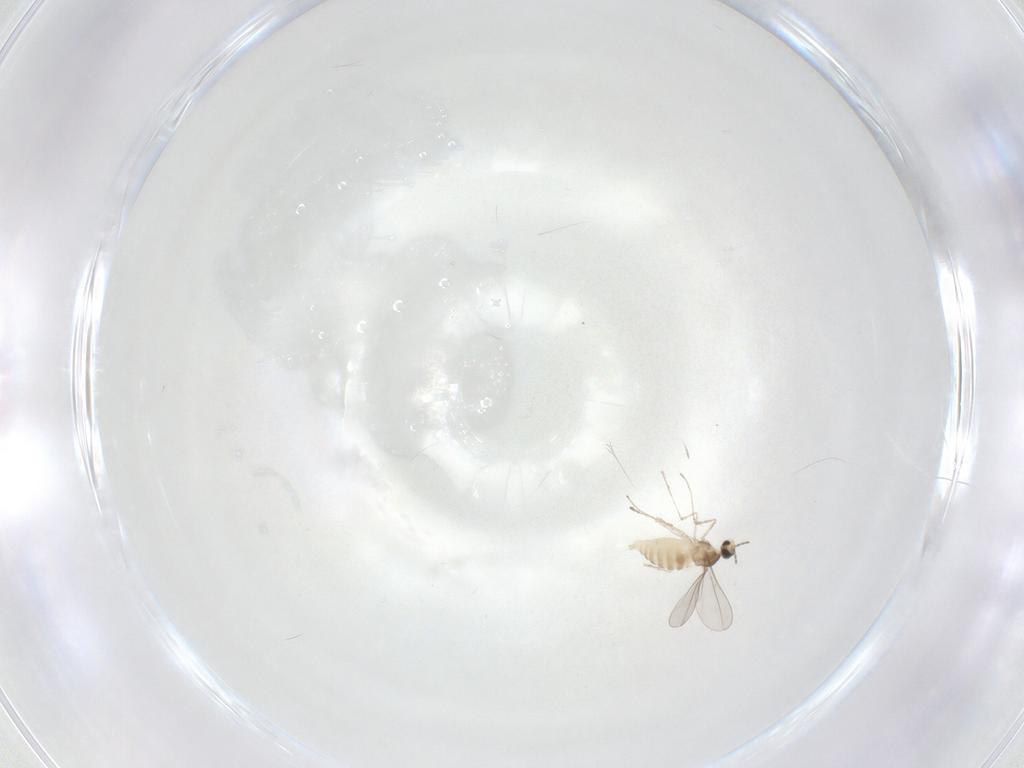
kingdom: Animalia
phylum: Arthropoda
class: Insecta
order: Diptera
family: Cecidomyiidae
